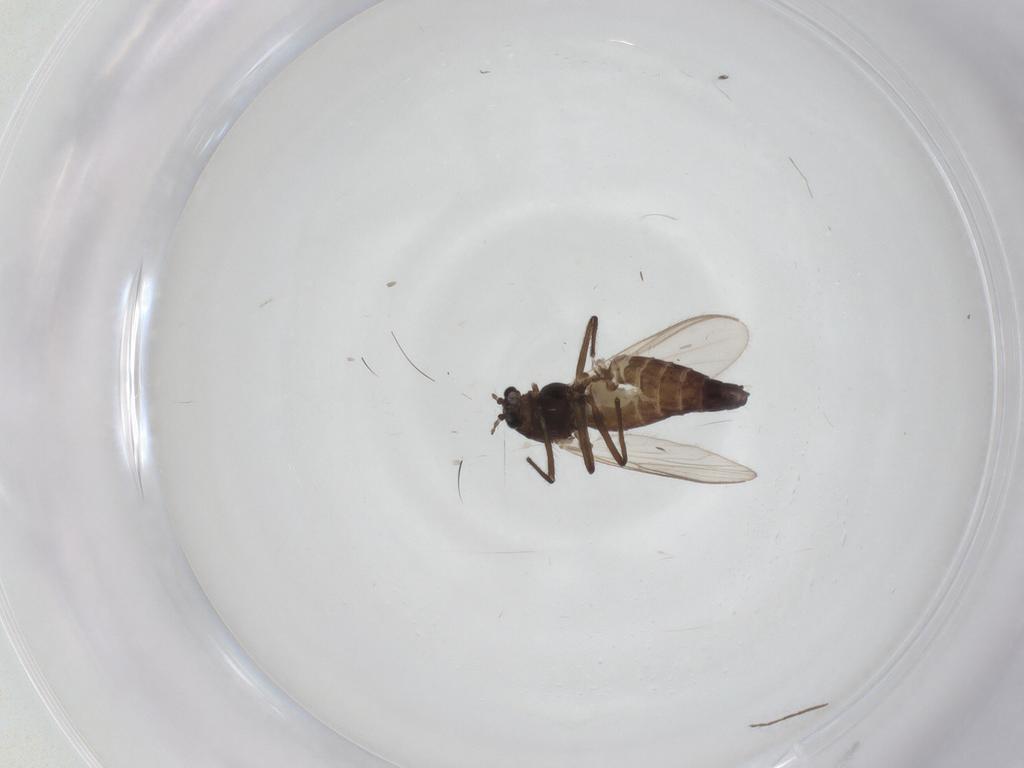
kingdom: Animalia
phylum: Arthropoda
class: Insecta
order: Diptera
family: Chironomidae
